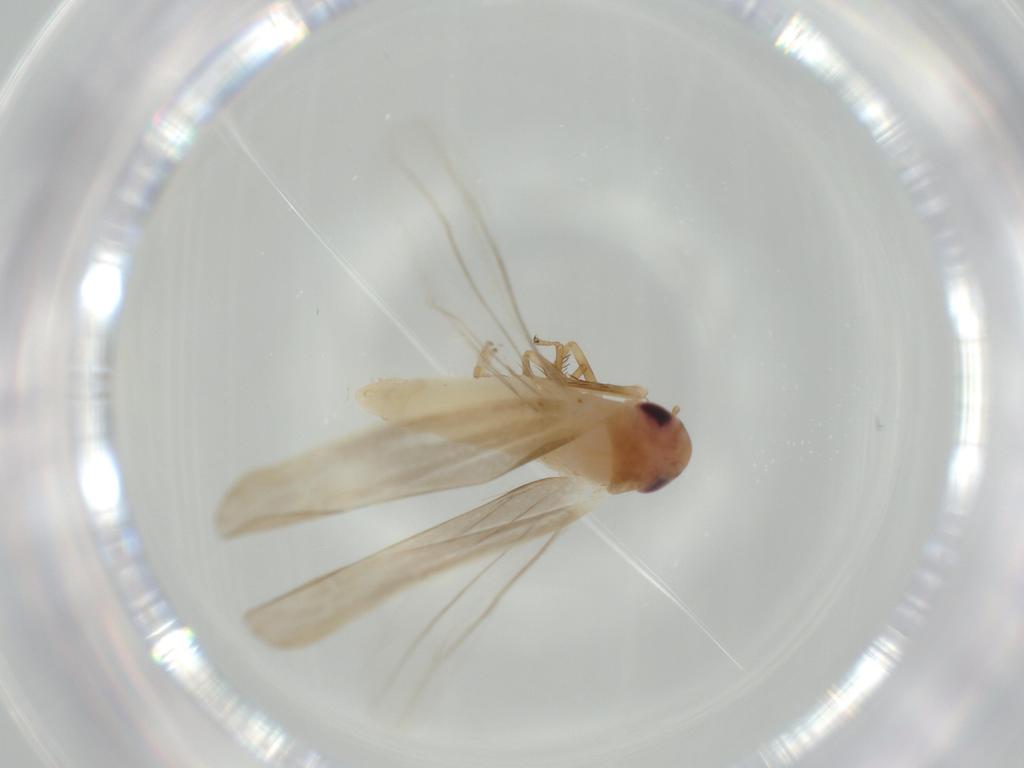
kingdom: Animalia
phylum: Arthropoda
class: Insecta
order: Hemiptera
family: Cicadellidae
